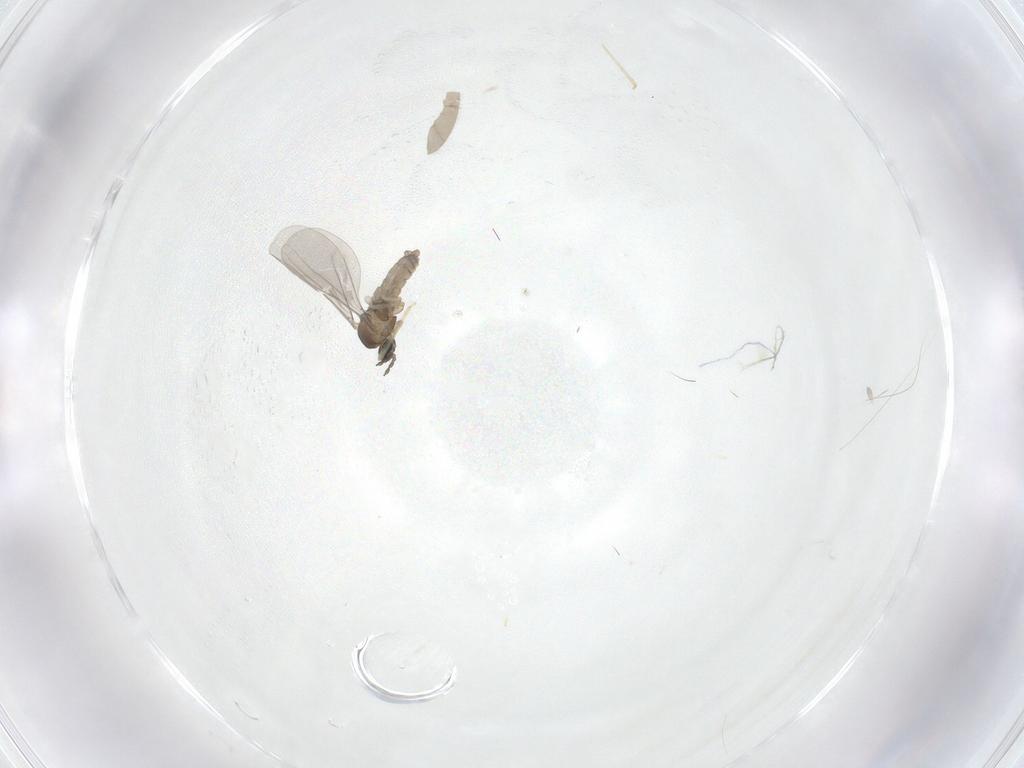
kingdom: Animalia
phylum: Arthropoda
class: Insecta
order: Diptera
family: Chironomidae
